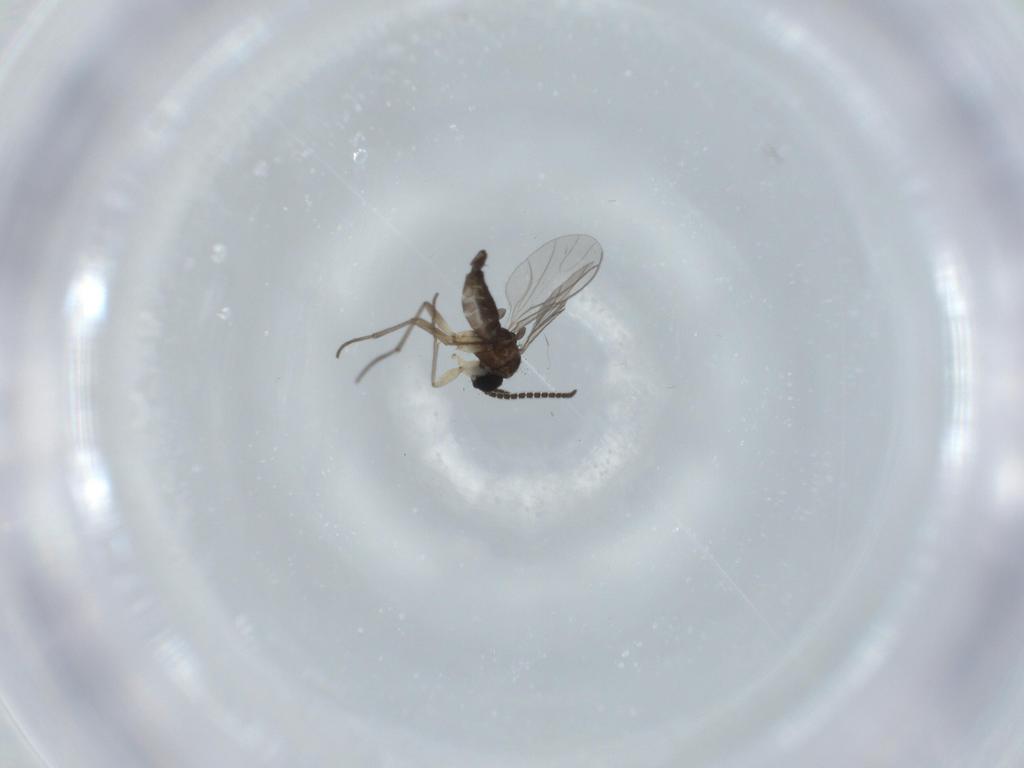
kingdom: Animalia
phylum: Arthropoda
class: Insecta
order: Diptera
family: Sciaridae
